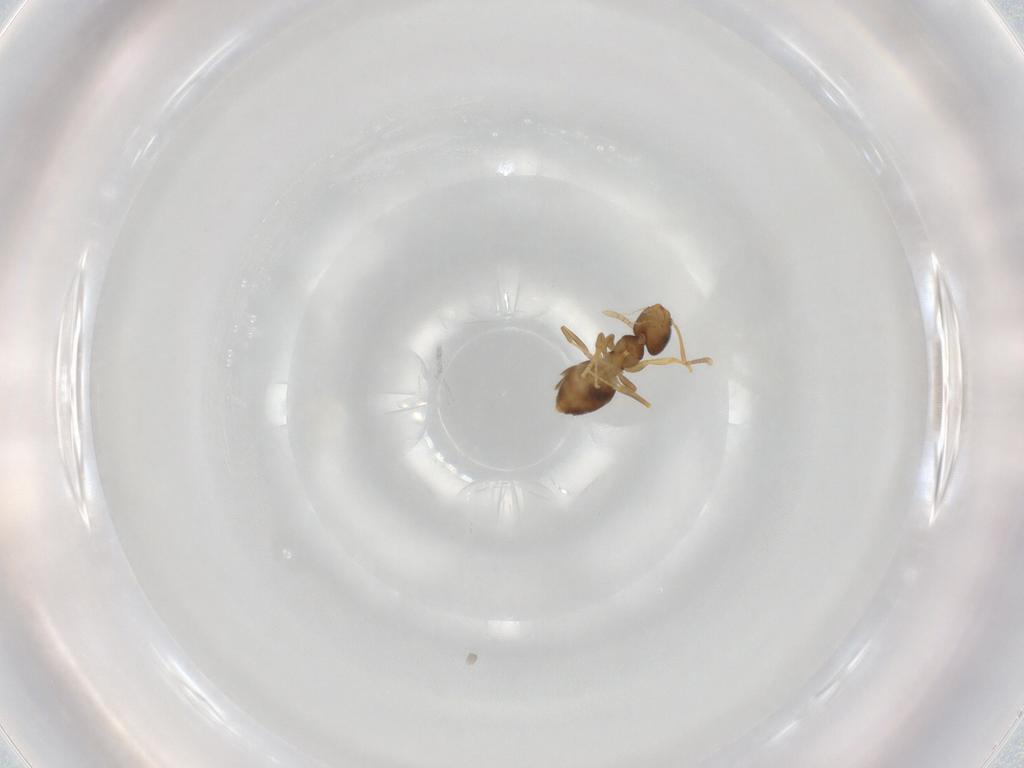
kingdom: Animalia
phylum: Arthropoda
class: Insecta
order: Hymenoptera
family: Formicidae
